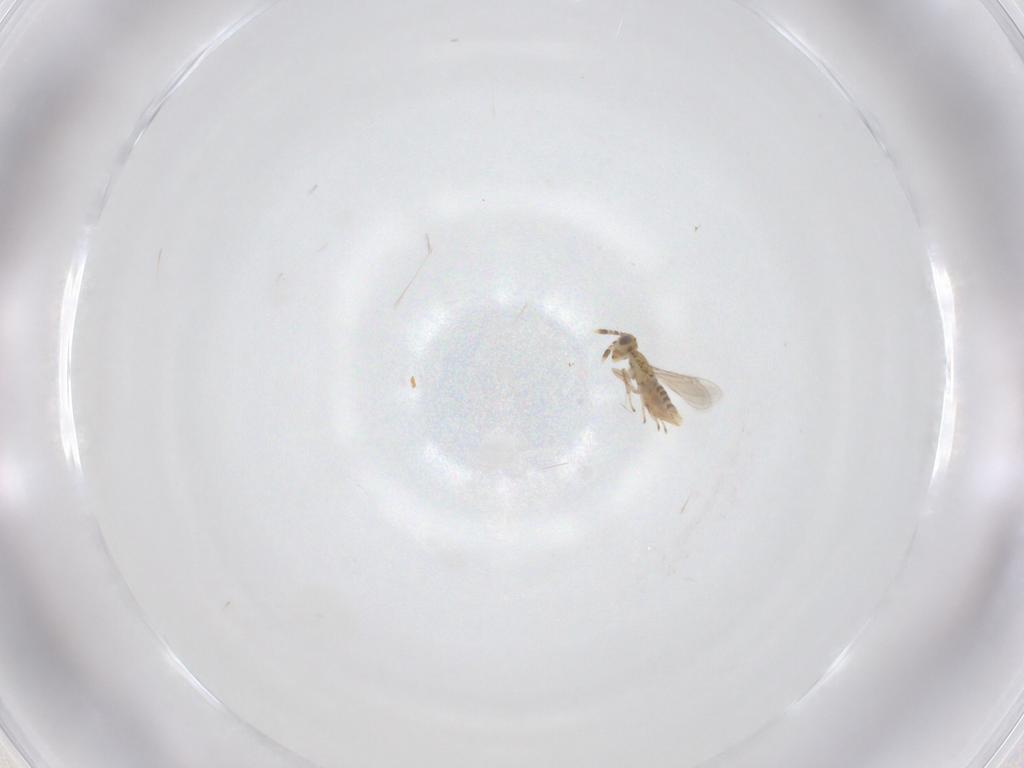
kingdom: Animalia
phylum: Arthropoda
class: Insecta
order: Hymenoptera
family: Aphelinidae
